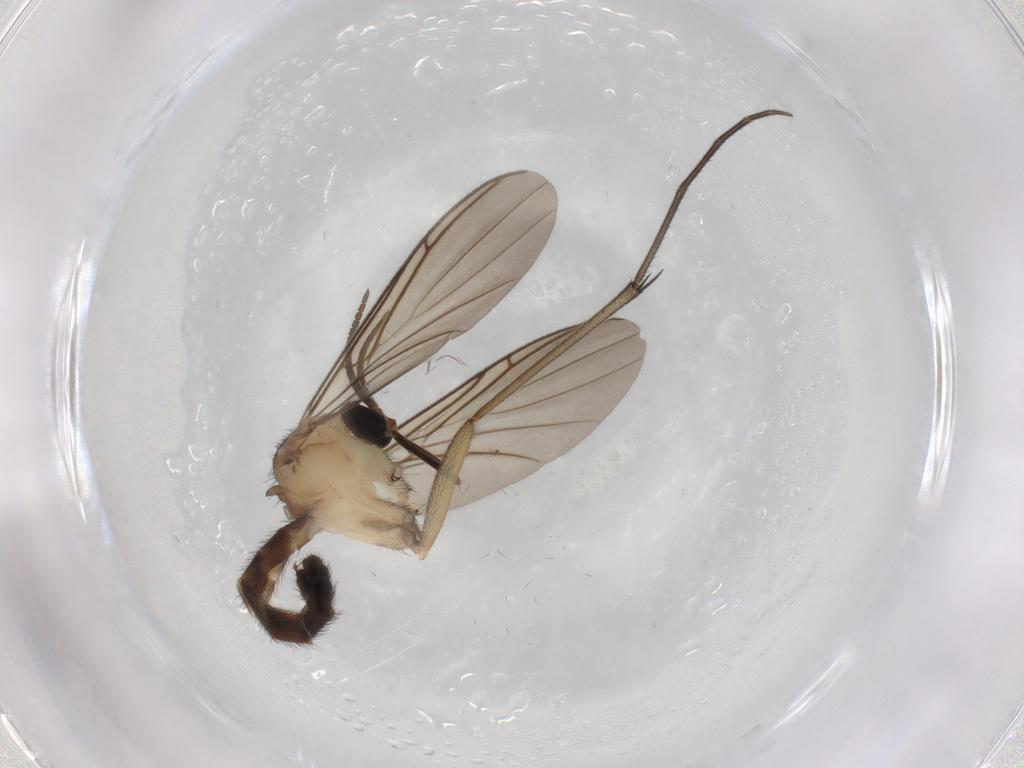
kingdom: Animalia
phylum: Arthropoda
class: Insecta
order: Diptera
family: Keroplatidae
